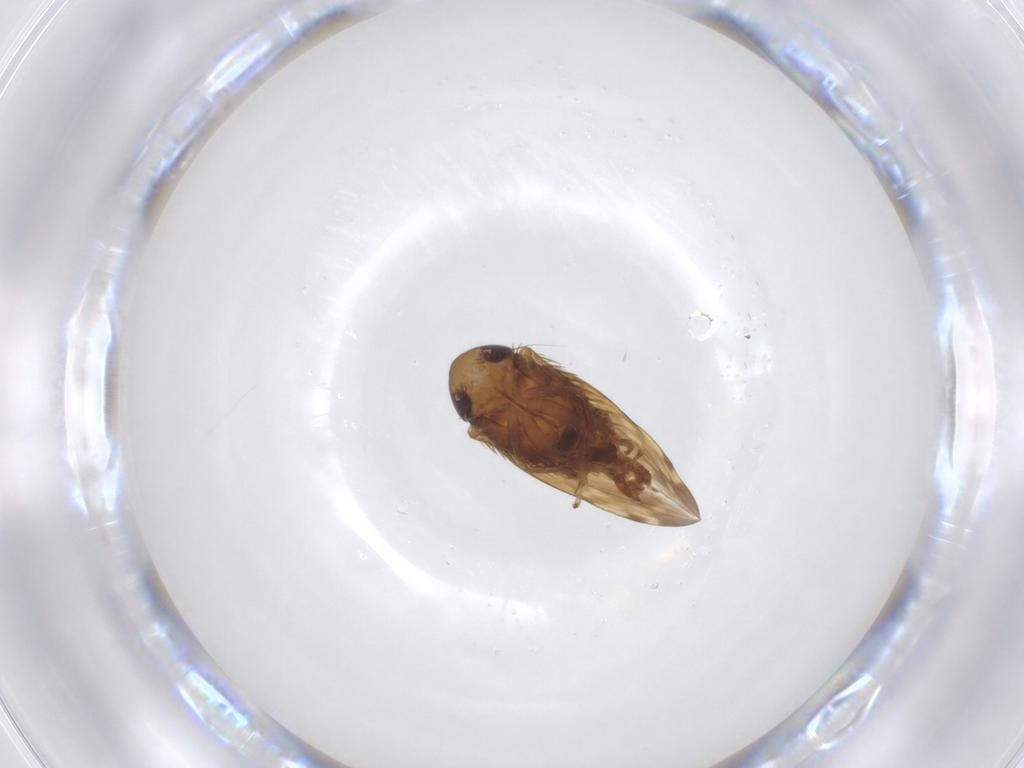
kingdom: Animalia
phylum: Arthropoda
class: Insecta
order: Hemiptera
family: Cicadellidae
